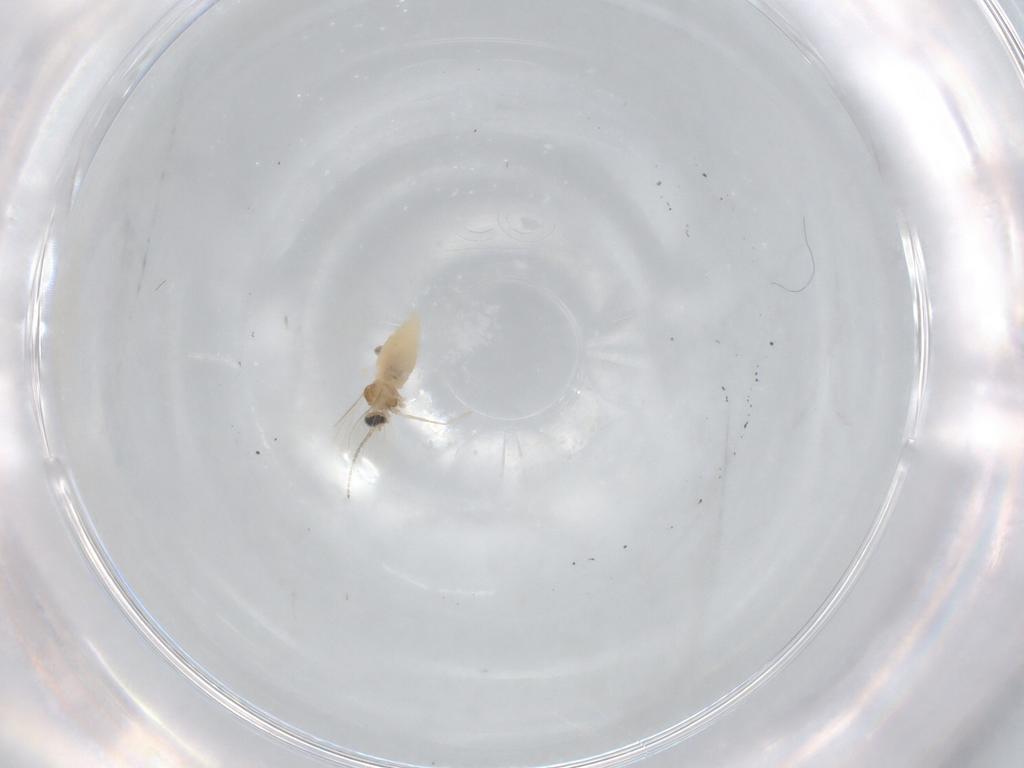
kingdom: Animalia
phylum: Arthropoda
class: Insecta
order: Diptera
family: Cecidomyiidae
